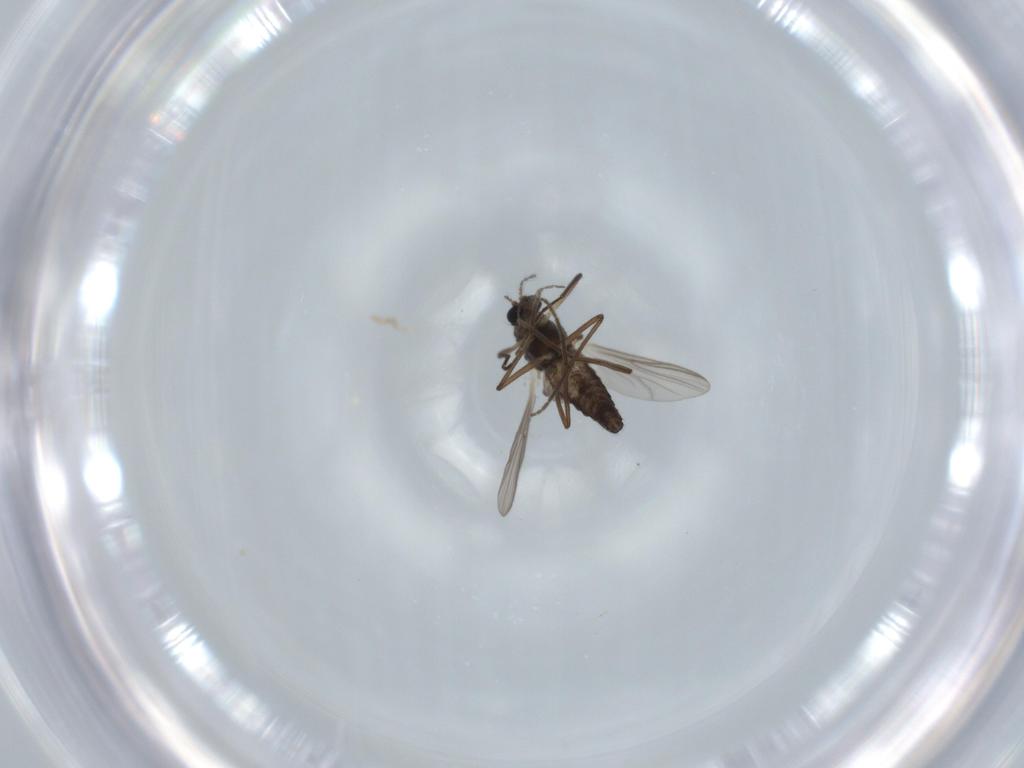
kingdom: Animalia
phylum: Arthropoda
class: Insecta
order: Diptera
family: Chironomidae
